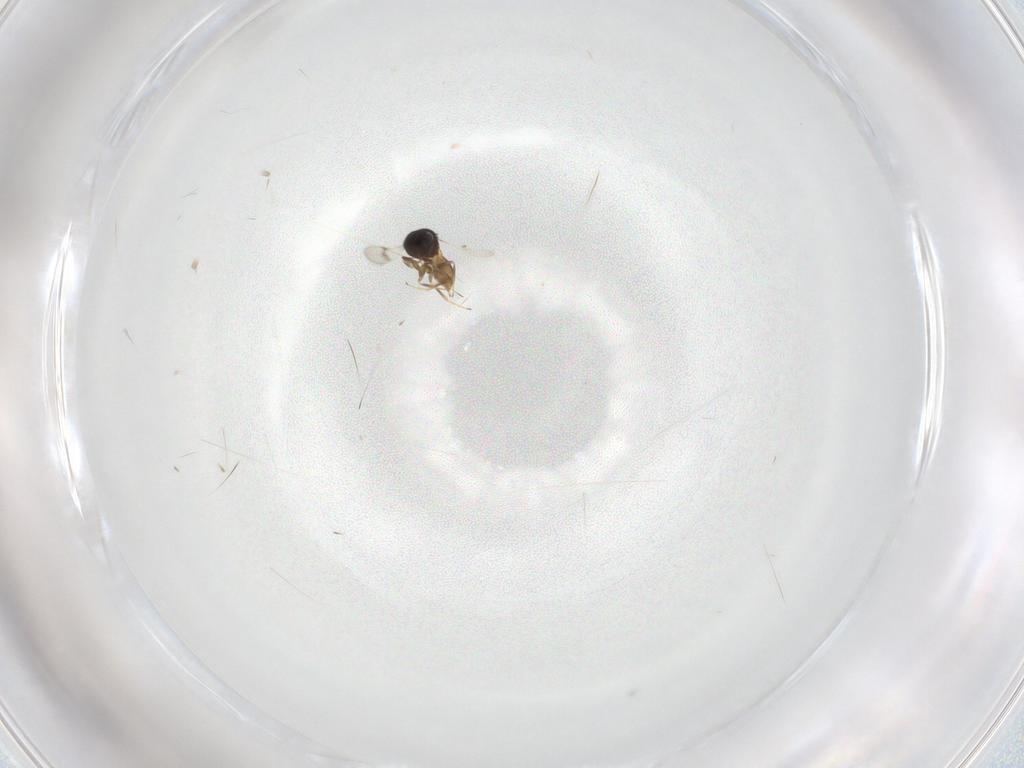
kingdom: Animalia
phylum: Arthropoda
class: Insecta
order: Hymenoptera
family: Scelionidae
